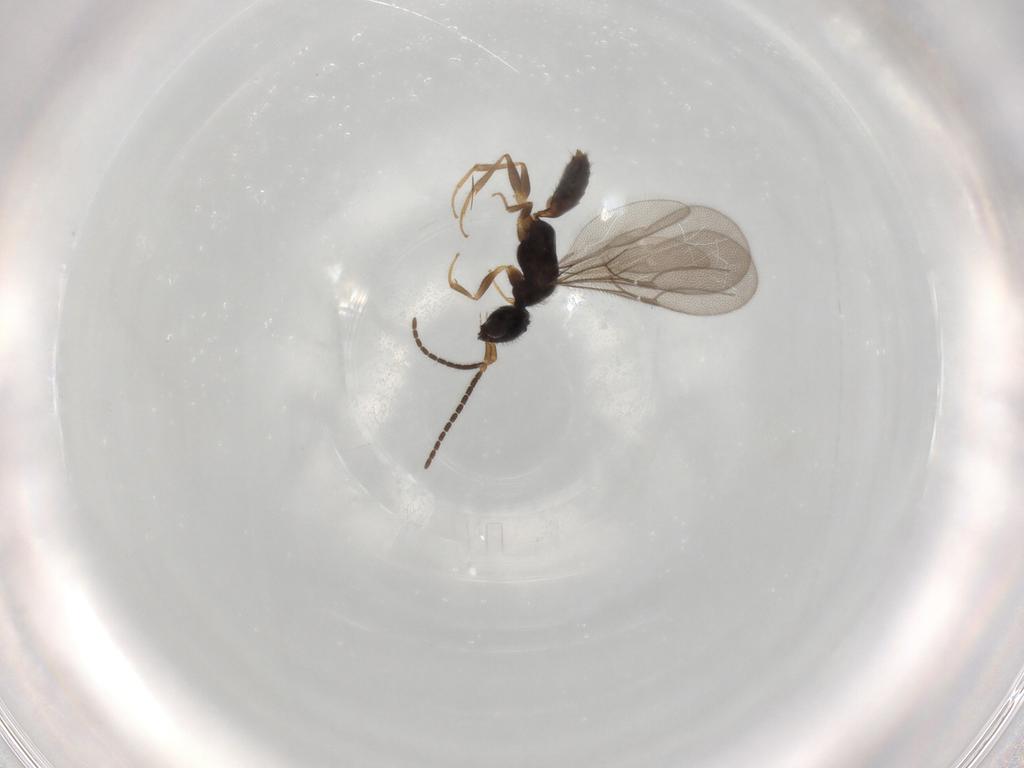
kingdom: Animalia
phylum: Arthropoda
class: Insecta
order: Hymenoptera
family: Bethylidae
